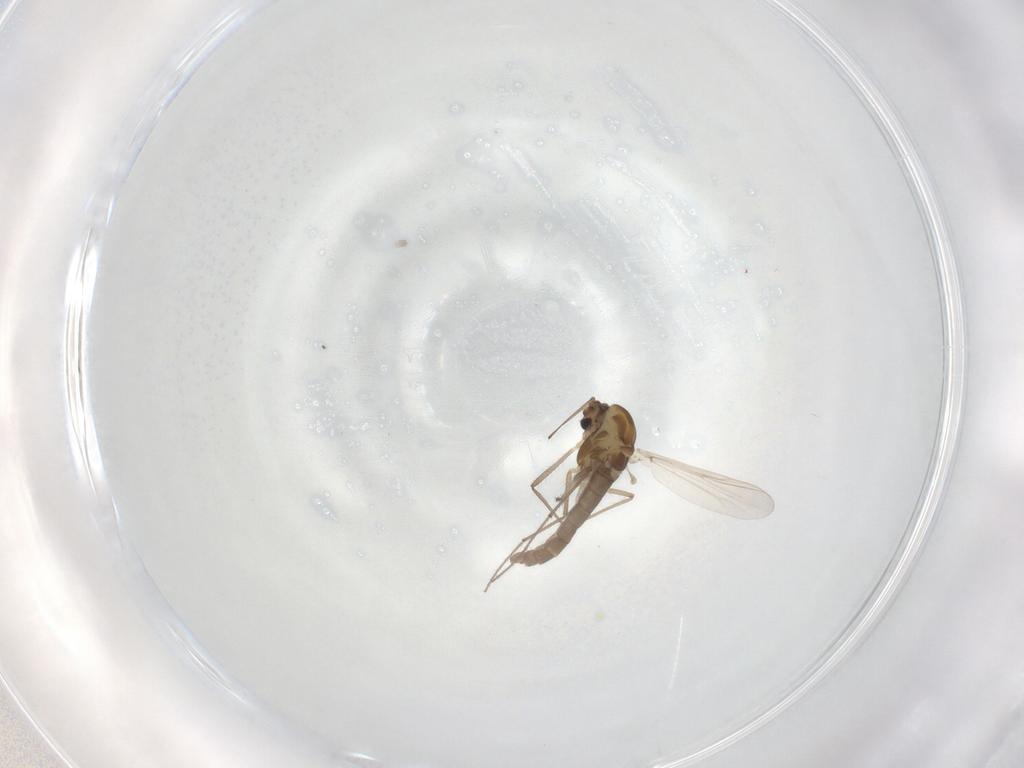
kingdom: Animalia
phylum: Arthropoda
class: Insecta
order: Diptera
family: Chironomidae
